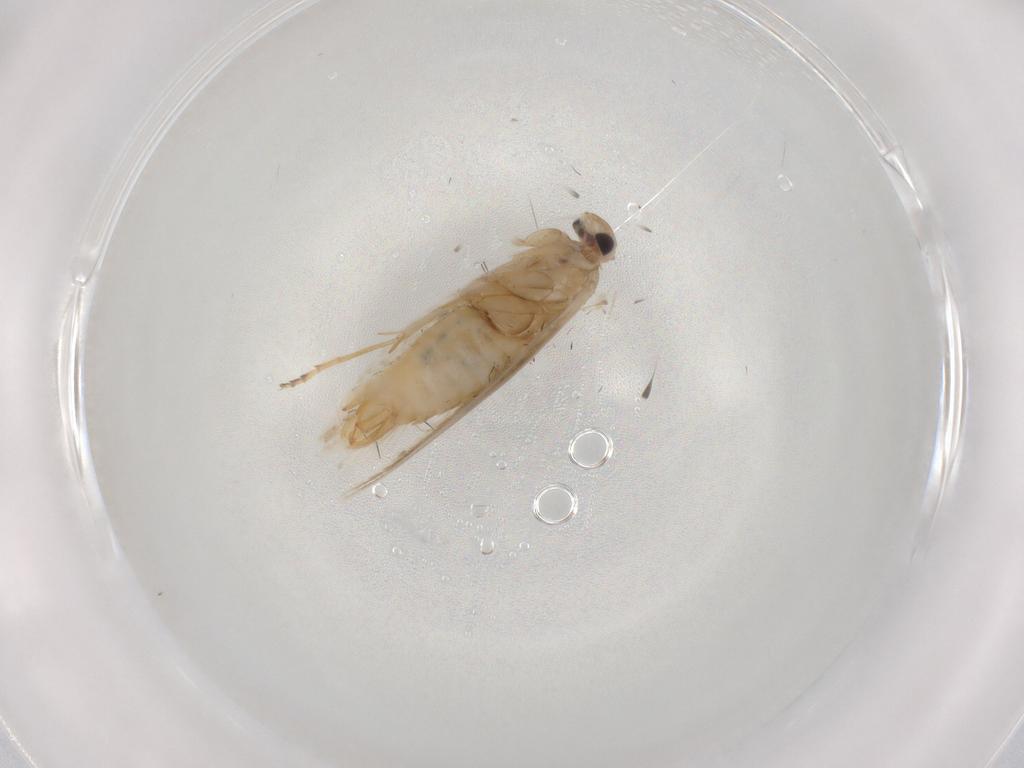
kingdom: Animalia
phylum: Arthropoda
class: Insecta
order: Lepidoptera
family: Bucculatricidae
